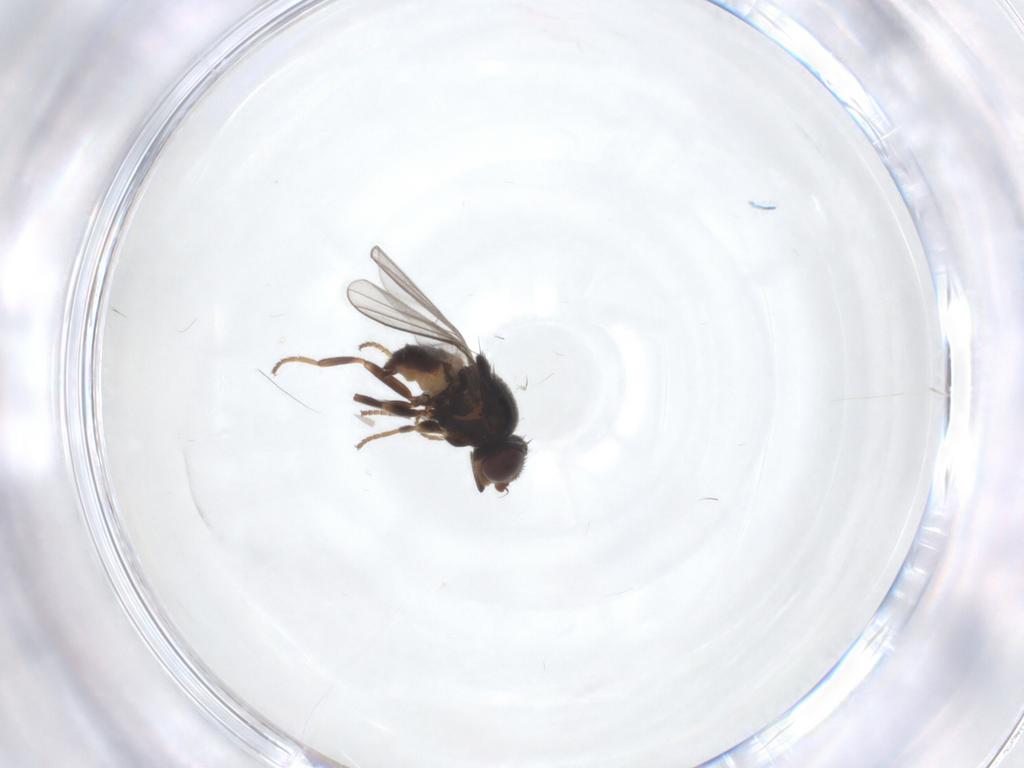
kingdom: Animalia
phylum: Arthropoda
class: Insecta
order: Diptera
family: Chloropidae
